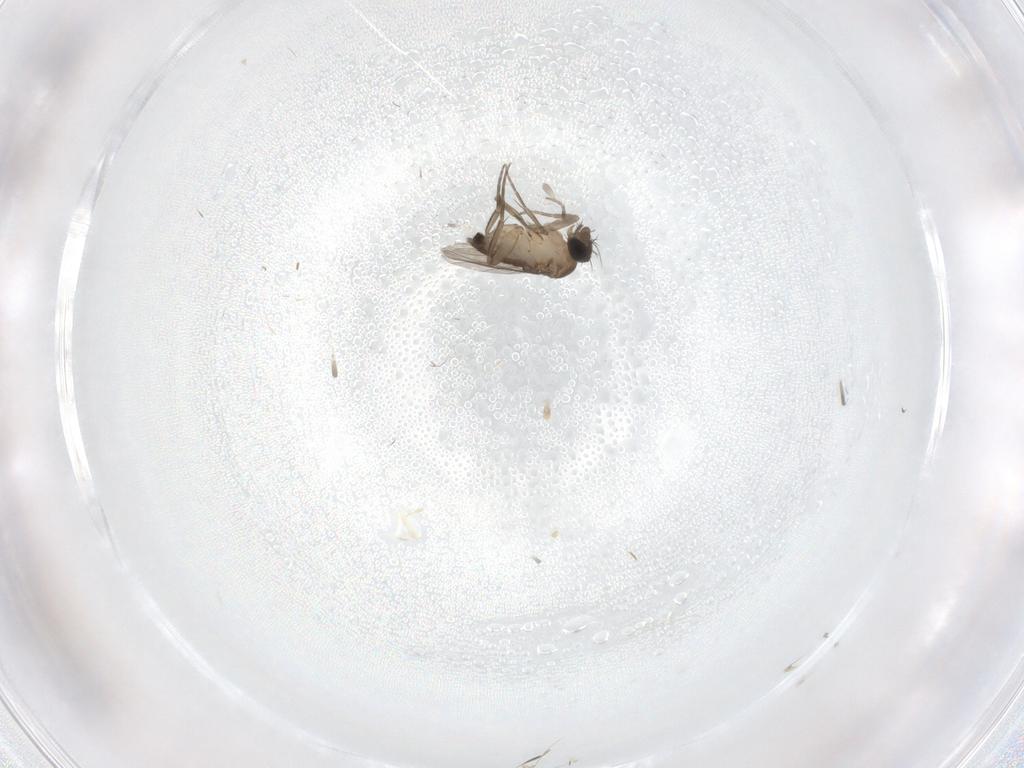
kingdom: Animalia
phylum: Arthropoda
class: Insecta
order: Diptera
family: Phoridae
